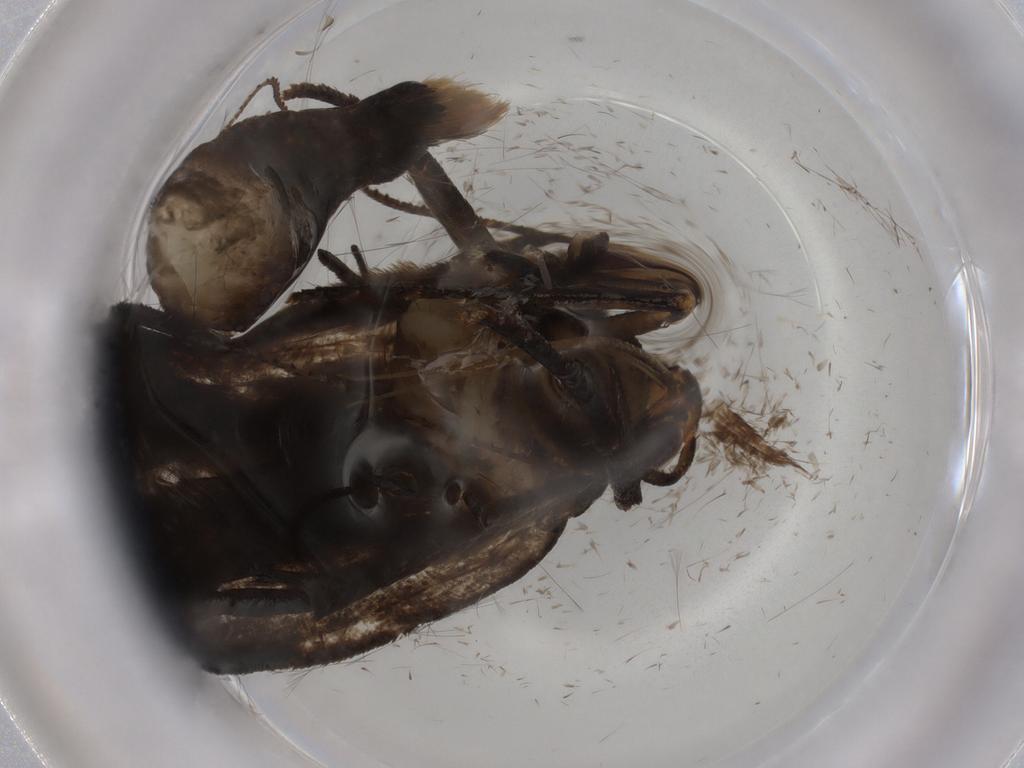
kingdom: Animalia
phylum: Arthropoda
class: Insecta
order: Lepidoptera
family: Gelechiidae
